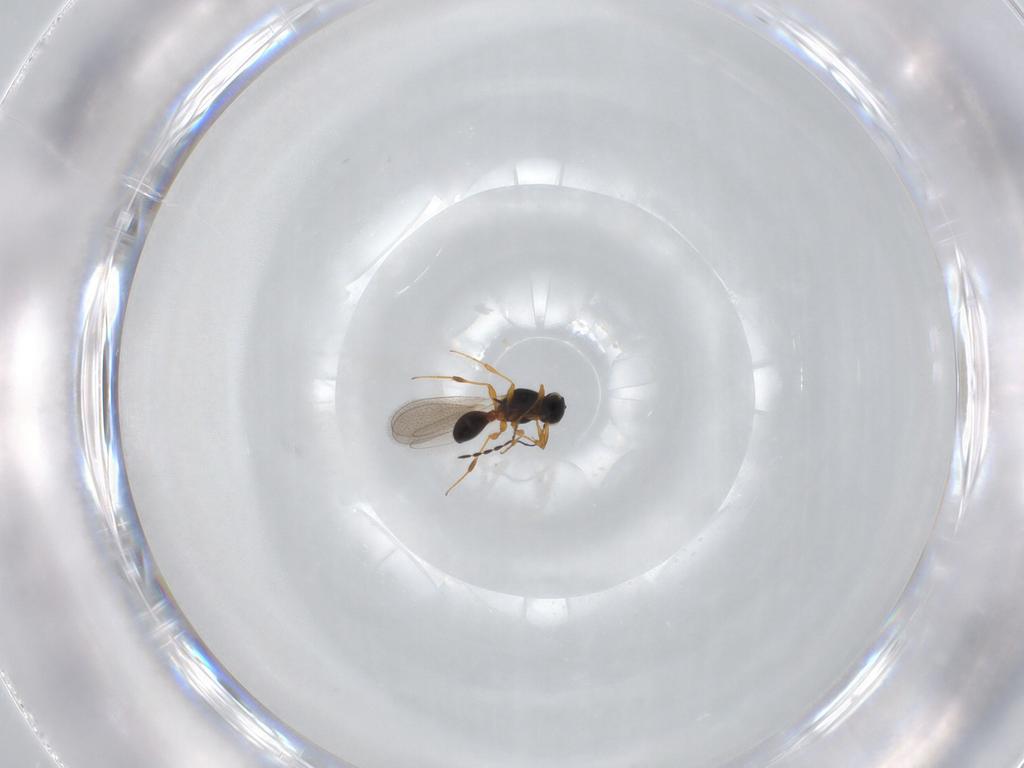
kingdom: Animalia
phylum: Arthropoda
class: Insecta
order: Hymenoptera
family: Platygastridae
